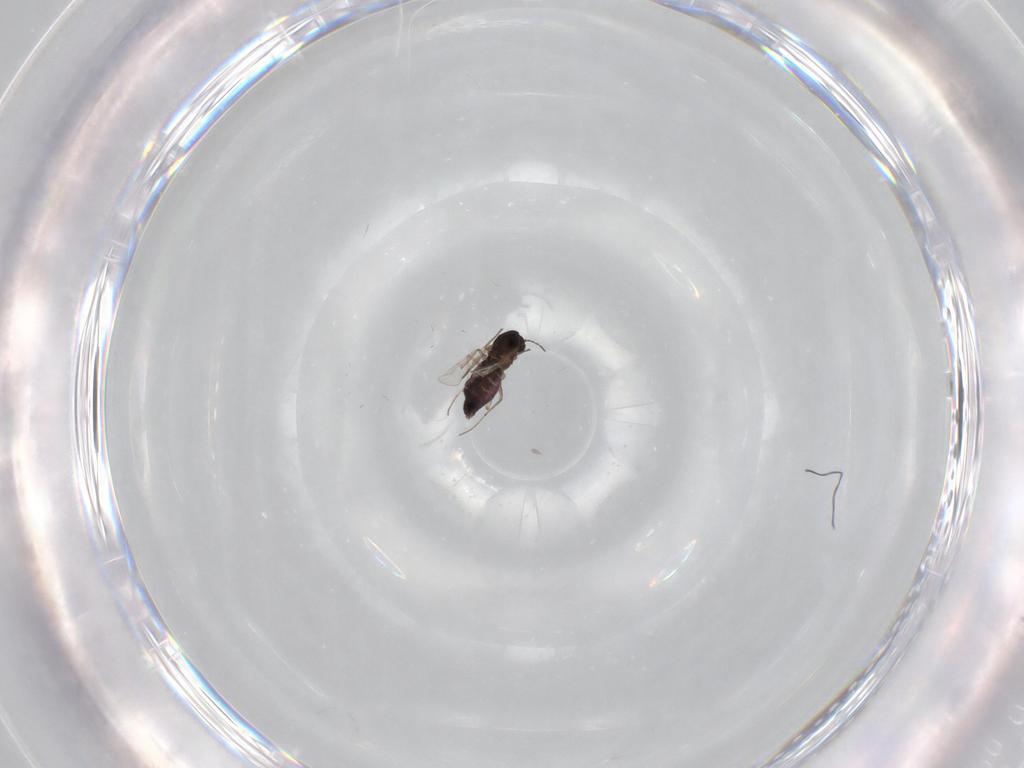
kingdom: Animalia
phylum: Arthropoda
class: Insecta
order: Diptera
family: Chironomidae
